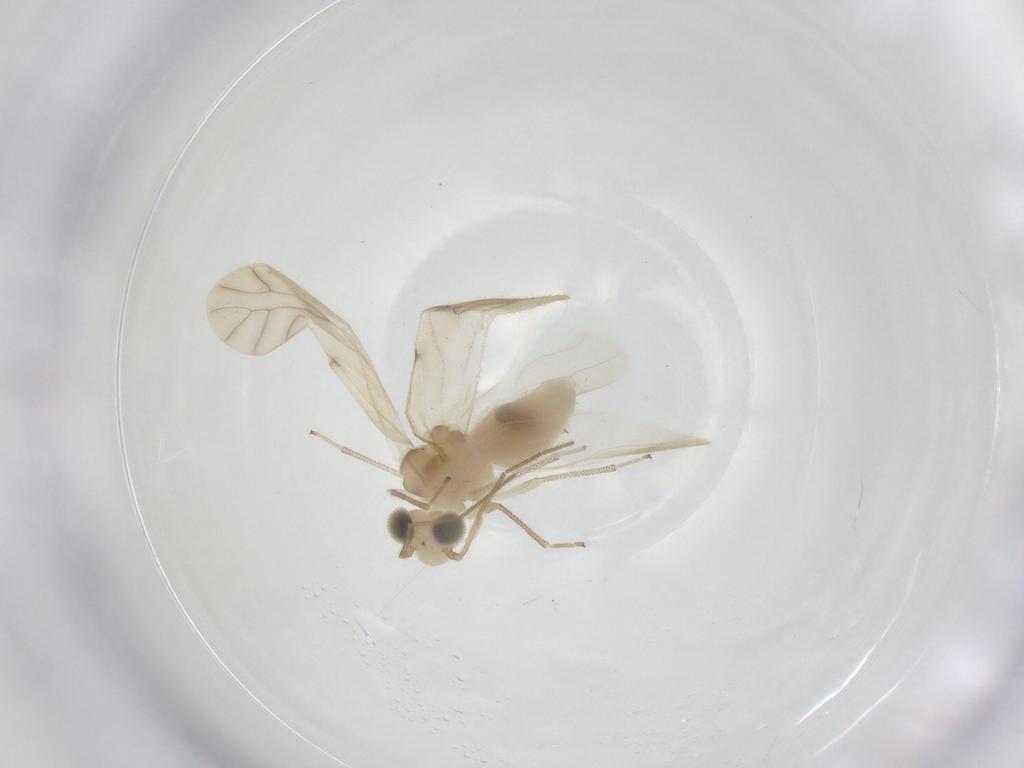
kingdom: Animalia
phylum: Arthropoda
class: Insecta
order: Psocodea
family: Caeciliusidae
